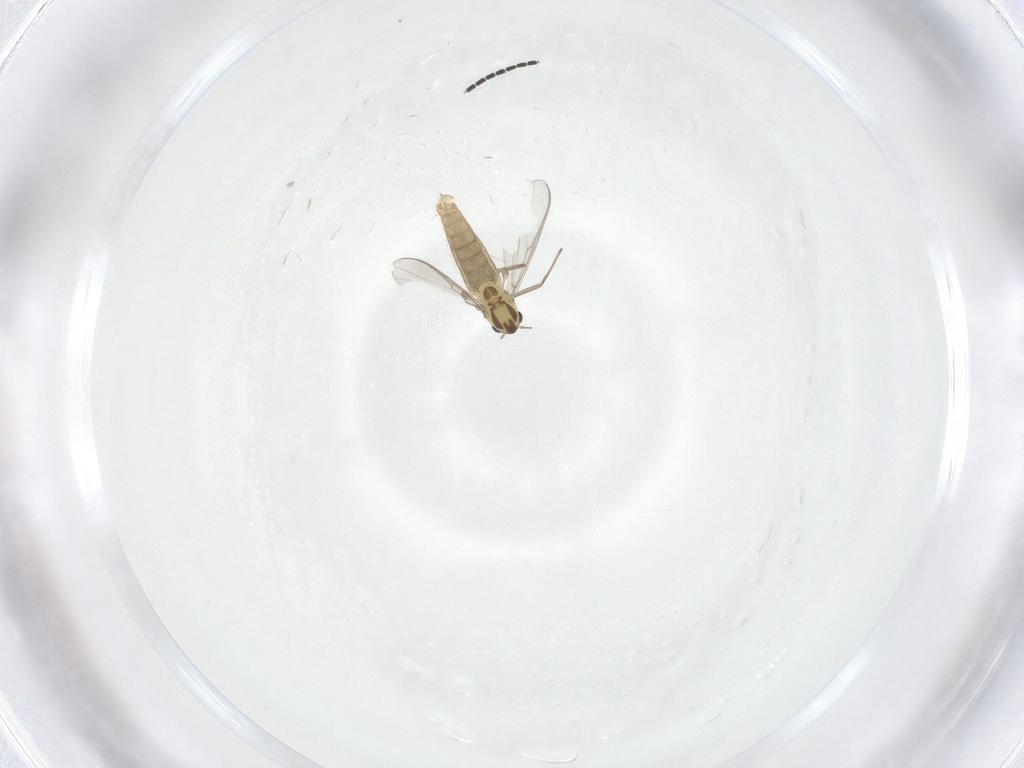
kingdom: Animalia
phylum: Arthropoda
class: Insecta
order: Diptera
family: Chironomidae
